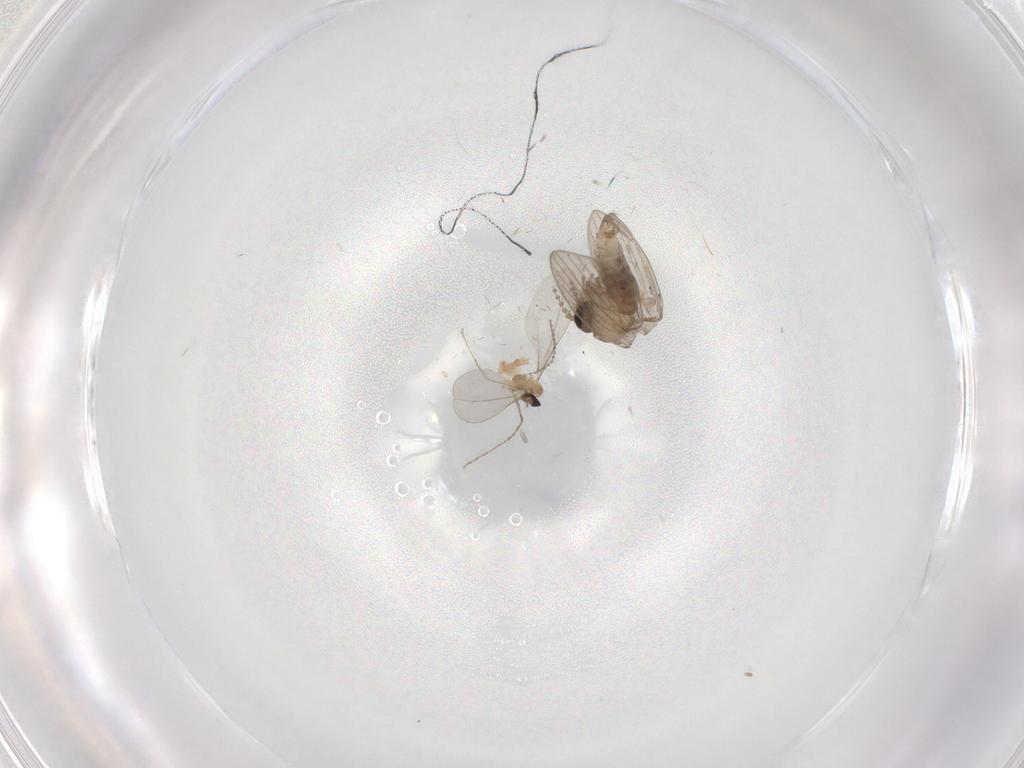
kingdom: Animalia
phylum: Arthropoda
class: Insecta
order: Diptera
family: Psychodidae
